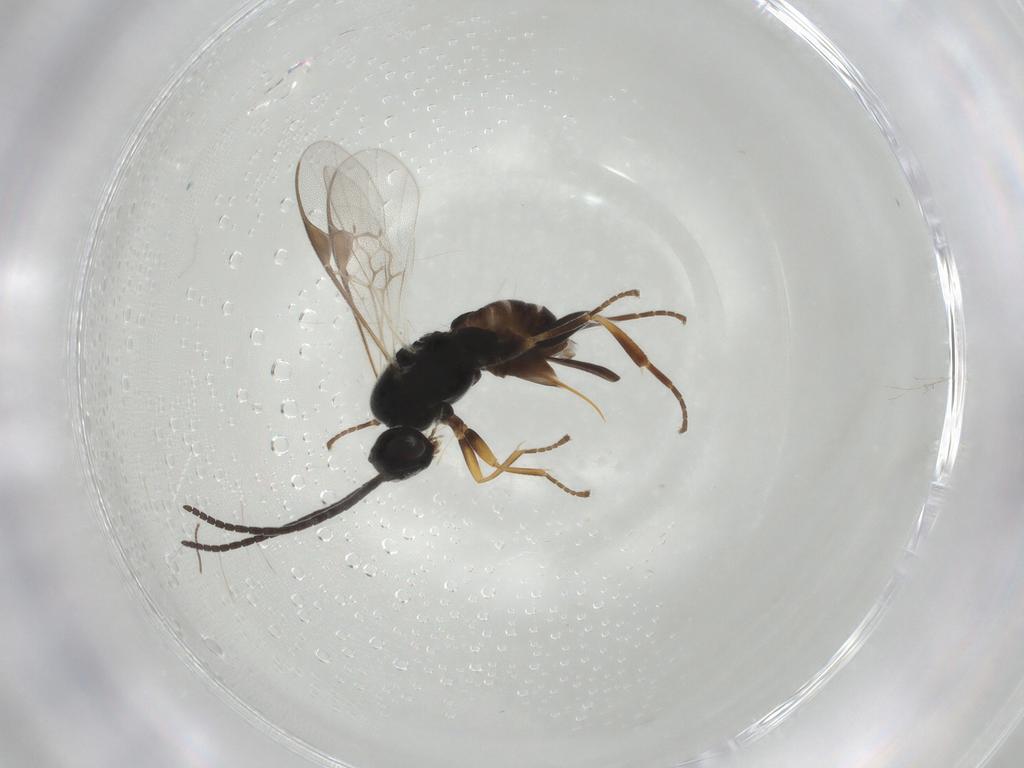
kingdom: Animalia
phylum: Arthropoda
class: Insecta
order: Hymenoptera
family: Braconidae
